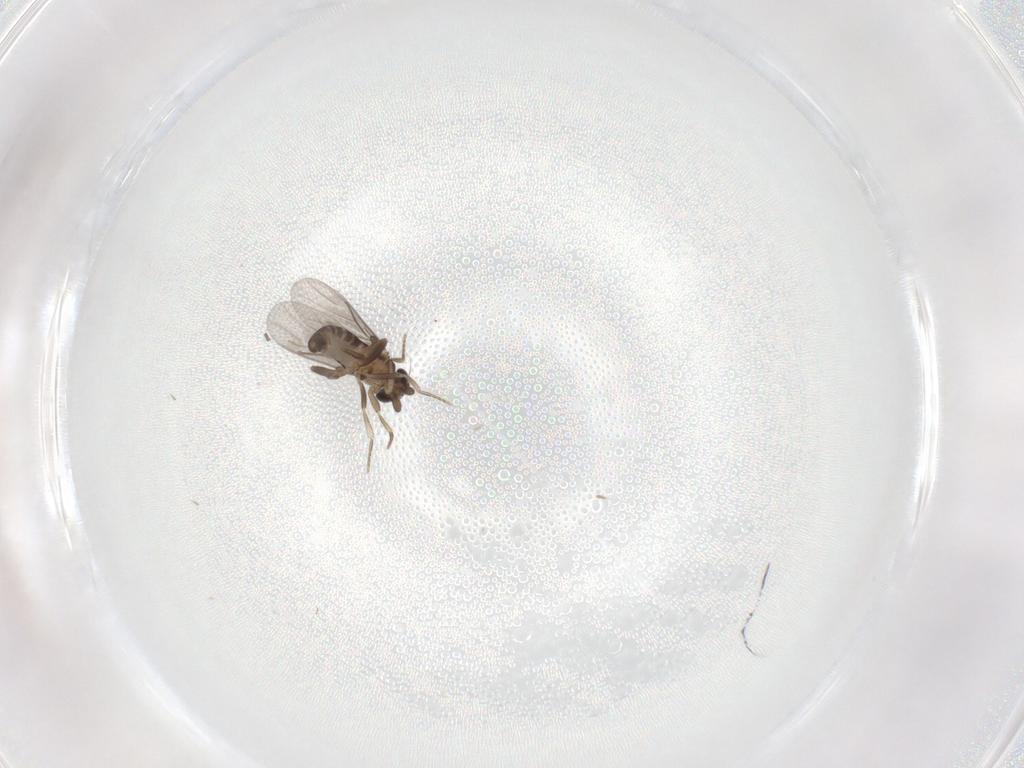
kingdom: Animalia
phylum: Arthropoda
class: Insecta
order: Diptera
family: Chironomidae
